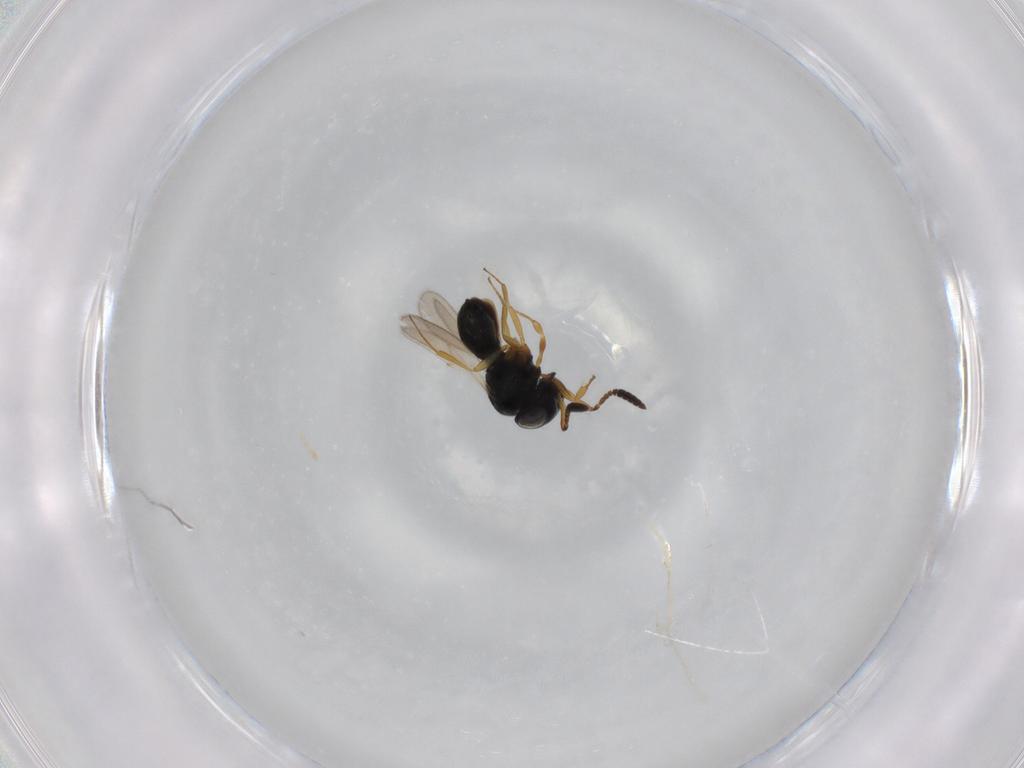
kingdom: Animalia
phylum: Arthropoda
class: Insecta
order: Hymenoptera
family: Scelionidae
